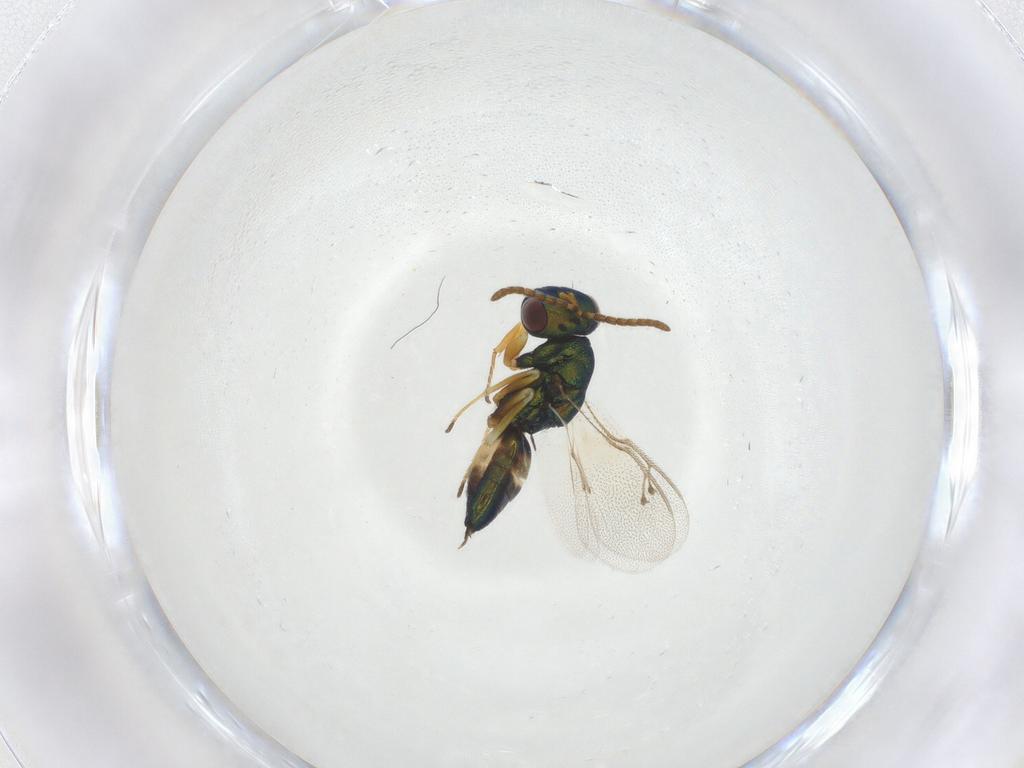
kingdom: Animalia
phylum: Arthropoda
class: Insecta
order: Hymenoptera
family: Pteromalidae
